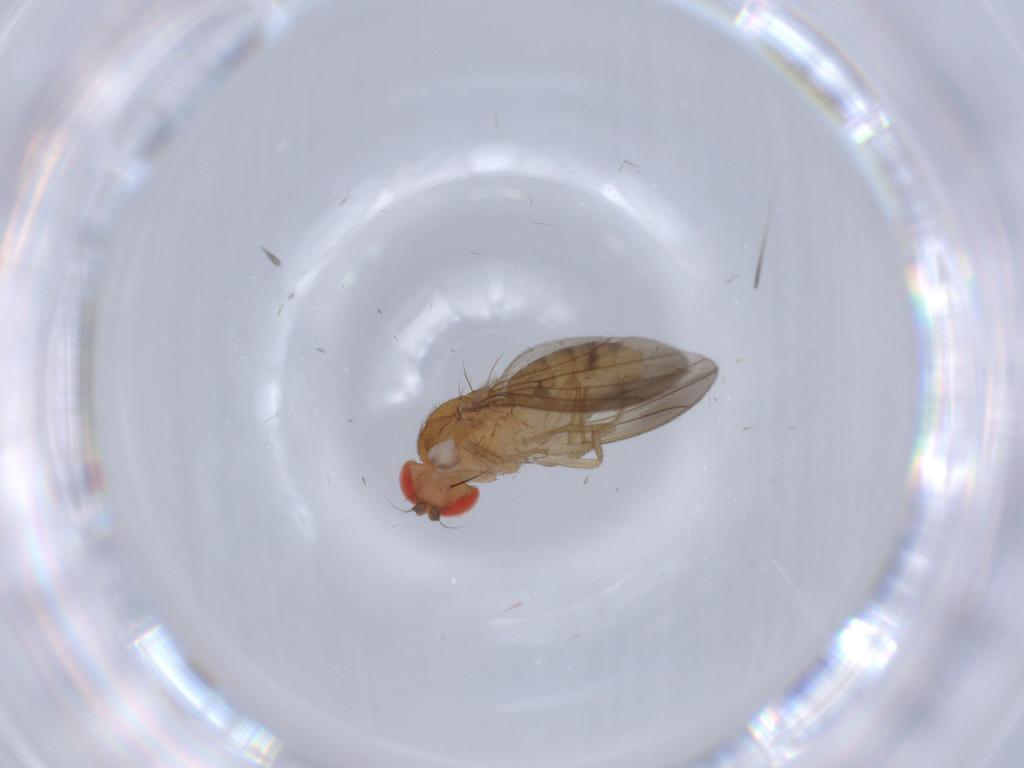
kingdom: Animalia
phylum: Arthropoda
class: Insecta
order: Diptera
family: Drosophilidae
